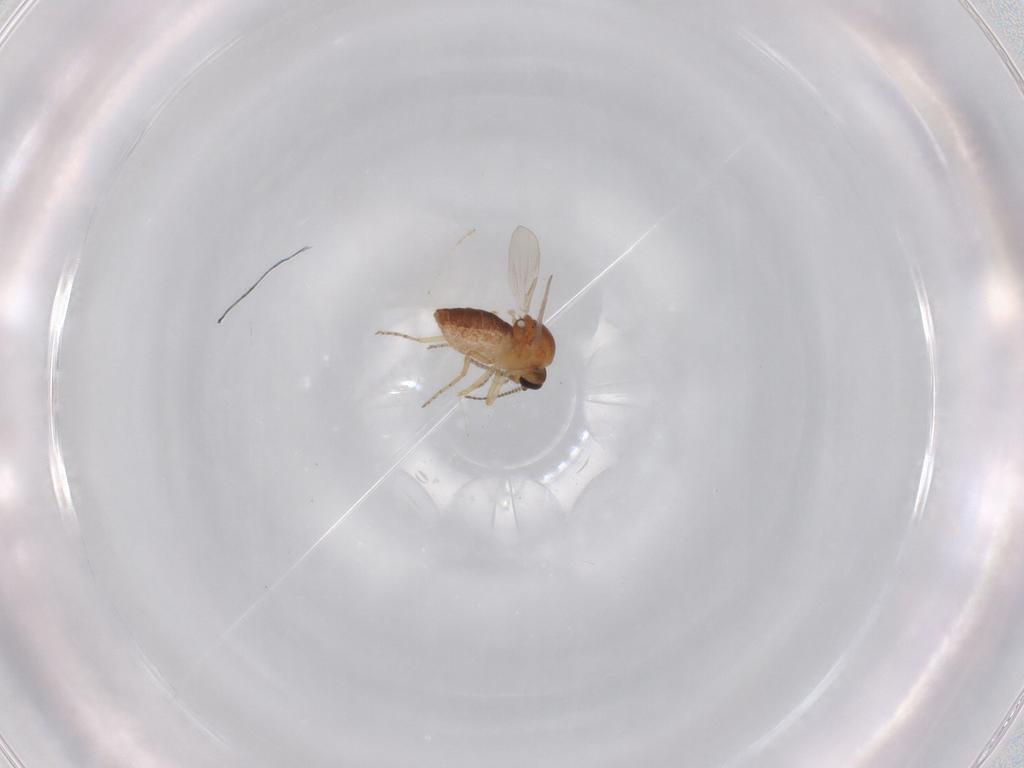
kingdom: Animalia
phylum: Arthropoda
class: Insecta
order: Diptera
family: Ceratopogonidae
